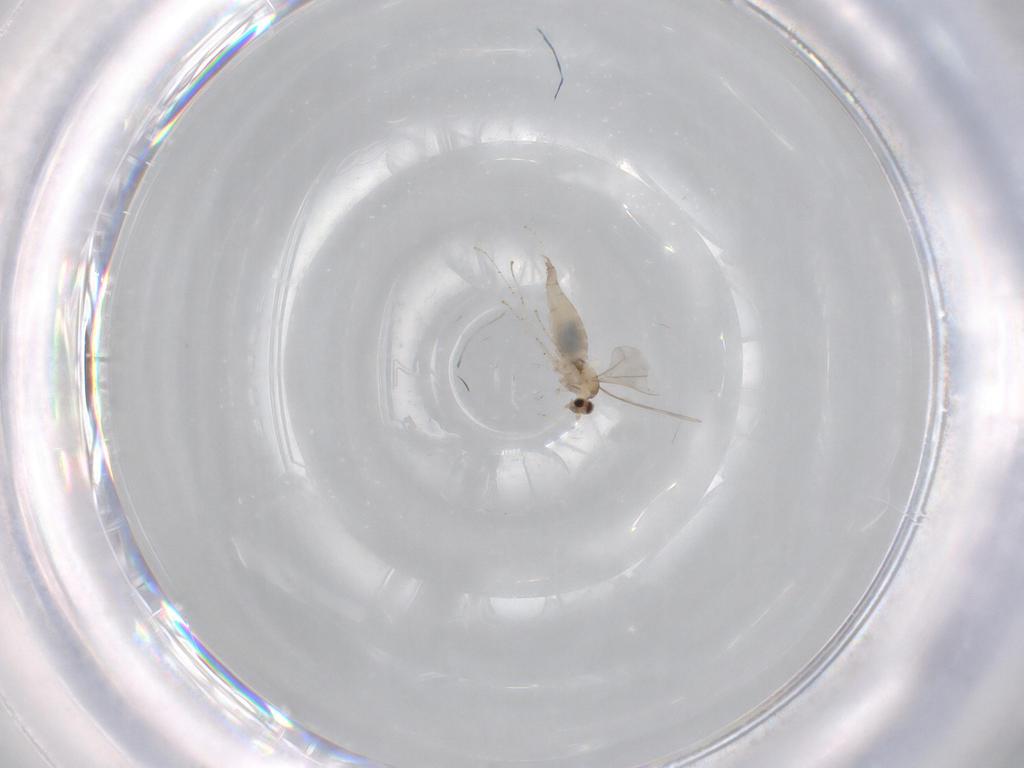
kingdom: Animalia
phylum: Arthropoda
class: Insecta
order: Diptera
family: Cecidomyiidae
